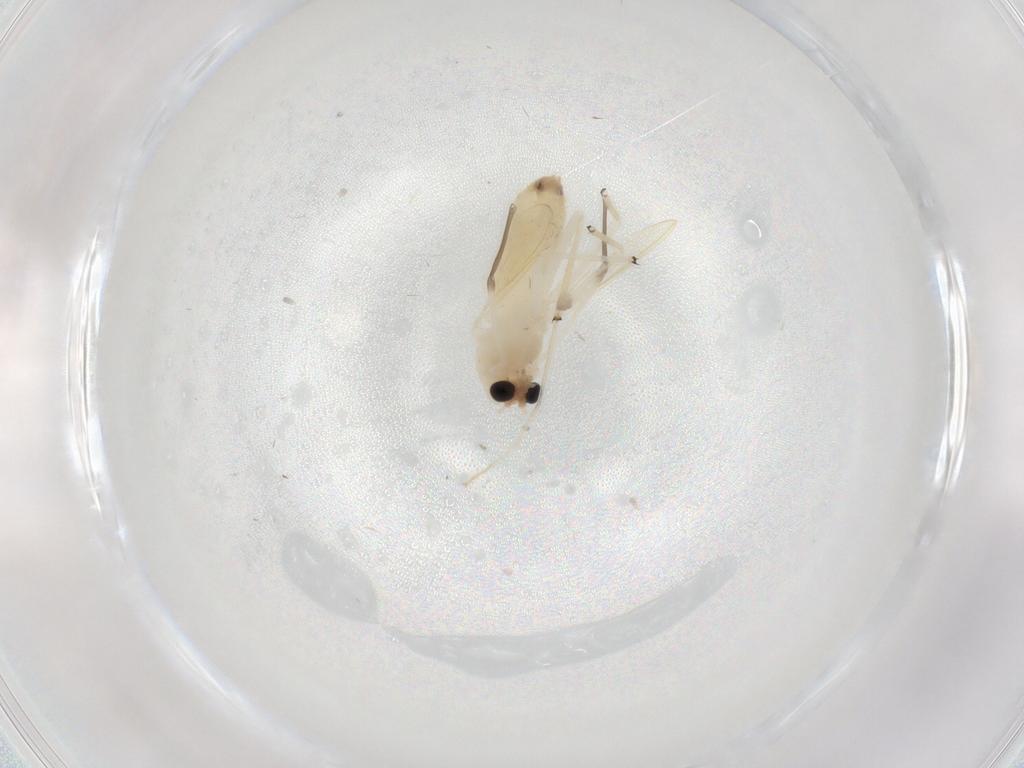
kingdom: Animalia
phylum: Arthropoda
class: Insecta
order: Diptera
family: Chironomidae
